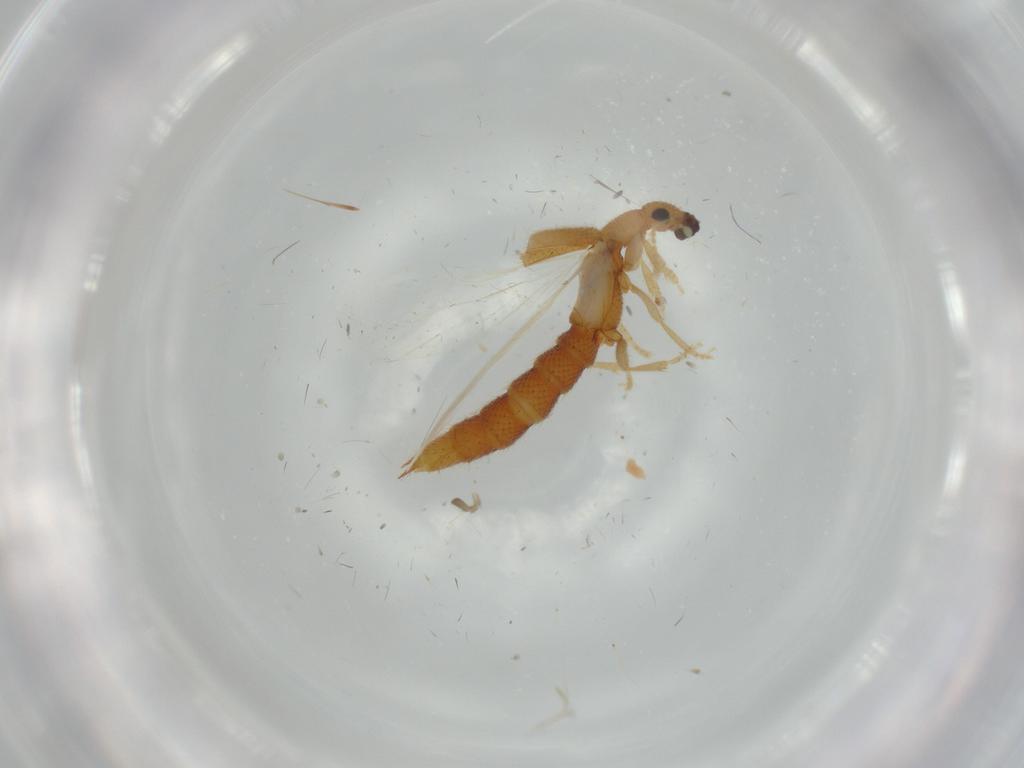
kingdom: Animalia
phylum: Arthropoda
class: Insecta
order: Coleoptera
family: Staphylinidae
